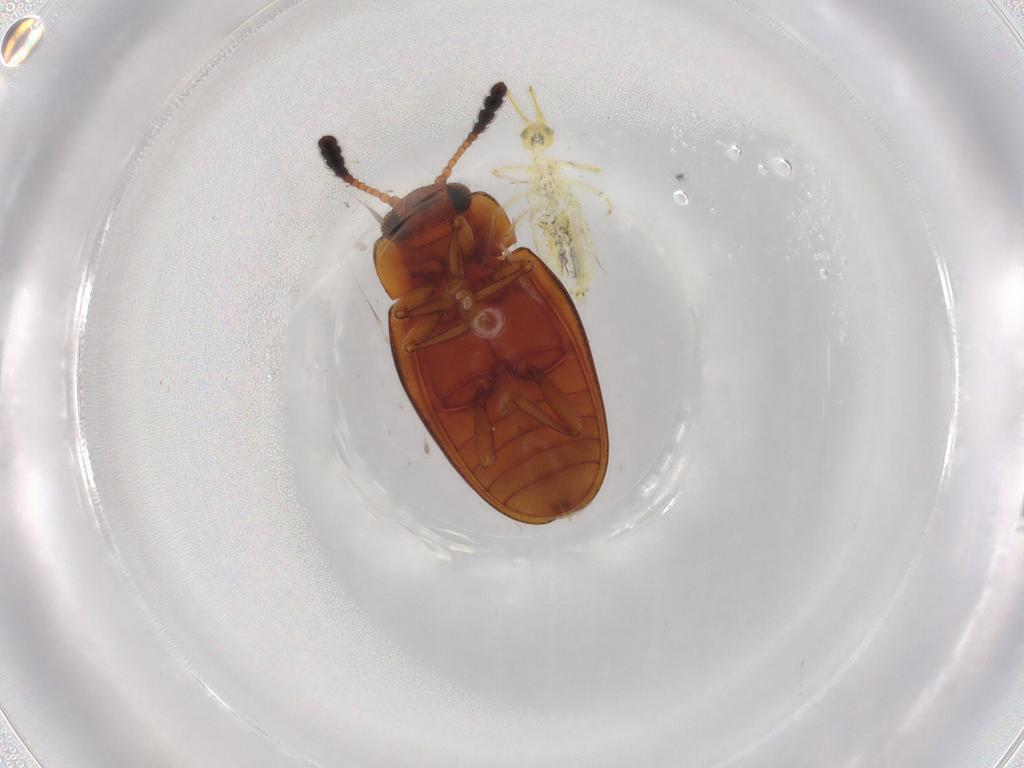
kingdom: Animalia
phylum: Arthropoda
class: Insecta
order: Coleoptera
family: Erotylidae
